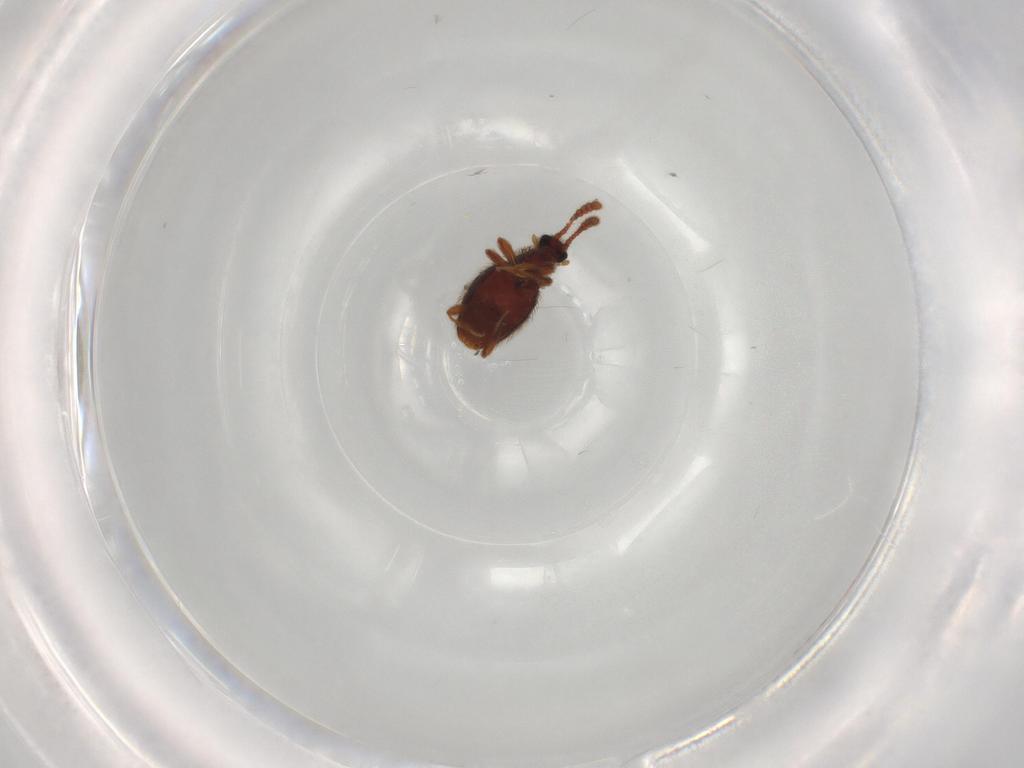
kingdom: Animalia
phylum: Arthropoda
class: Insecta
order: Coleoptera
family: Staphylinidae
